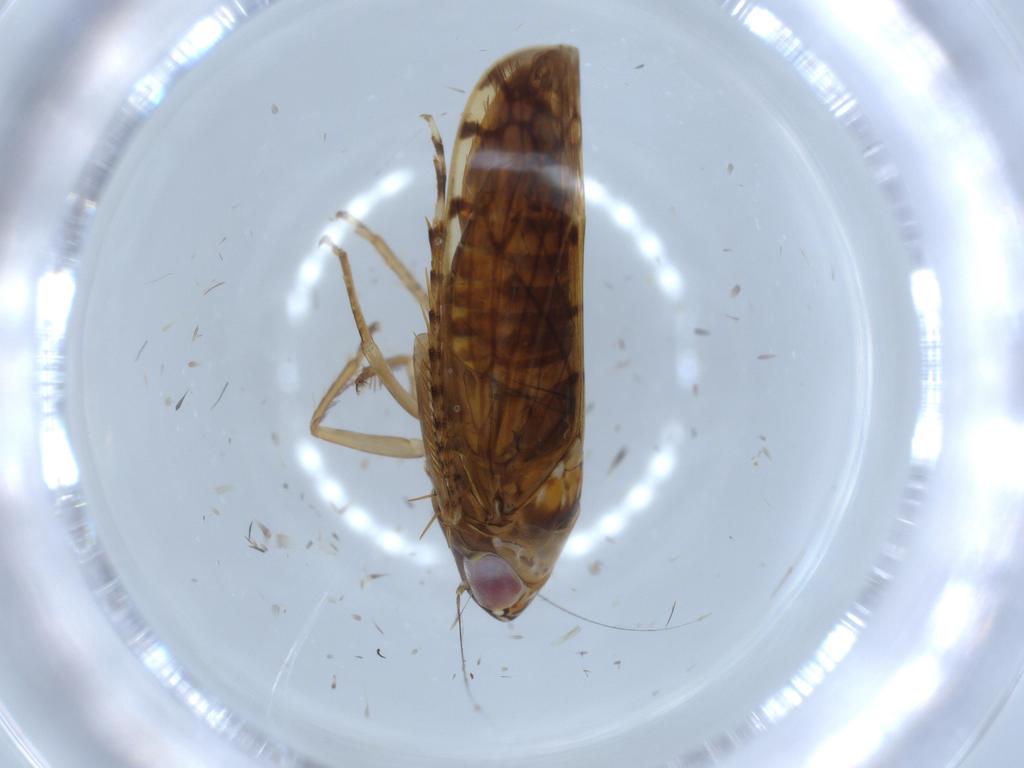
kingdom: Animalia
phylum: Arthropoda
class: Insecta
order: Hemiptera
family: Cicadellidae
